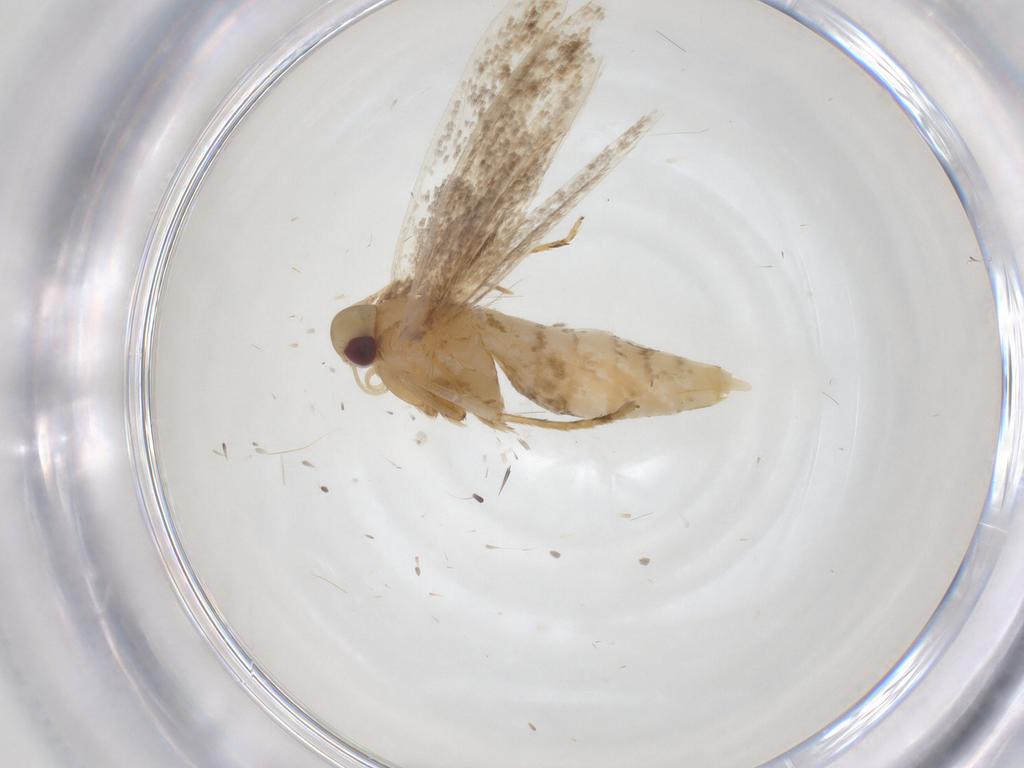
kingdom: Animalia
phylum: Arthropoda
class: Insecta
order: Lepidoptera
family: Cosmopterigidae
